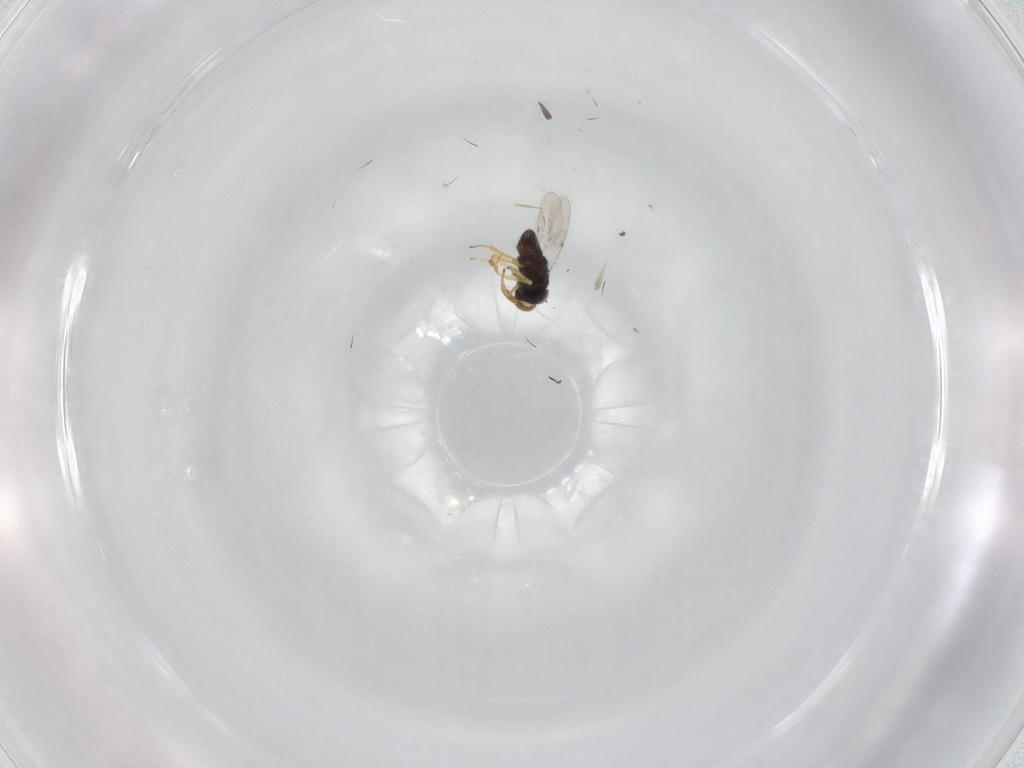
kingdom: Animalia
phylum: Arthropoda
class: Insecta
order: Hymenoptera
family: Encyrtidae
